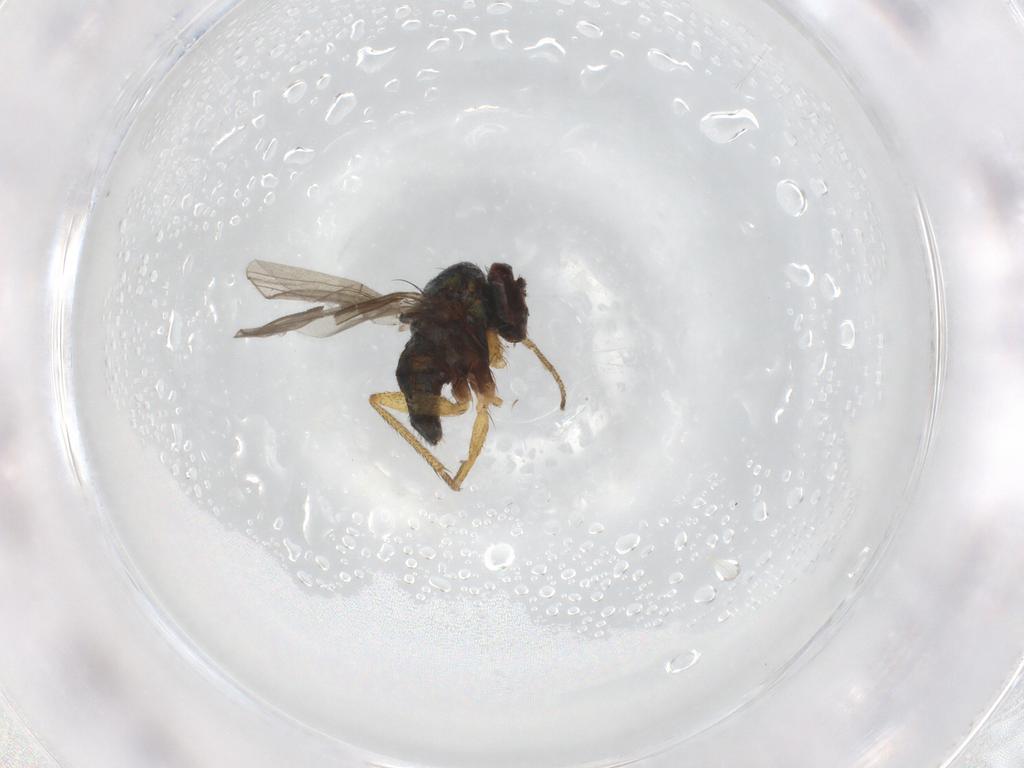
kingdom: Animalia
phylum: Arthropoda
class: Insecta
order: Diptera
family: Dolichopodidae
